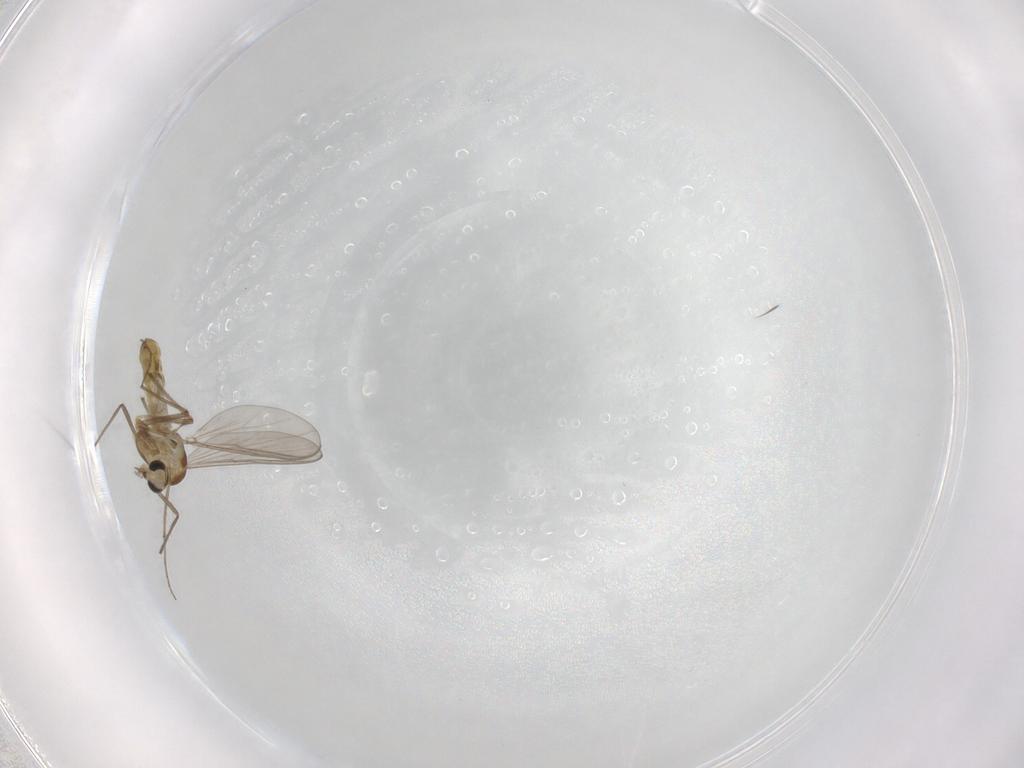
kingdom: Animalia
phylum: Arthropoda
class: Insecta
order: Diptera
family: Chironomidae
